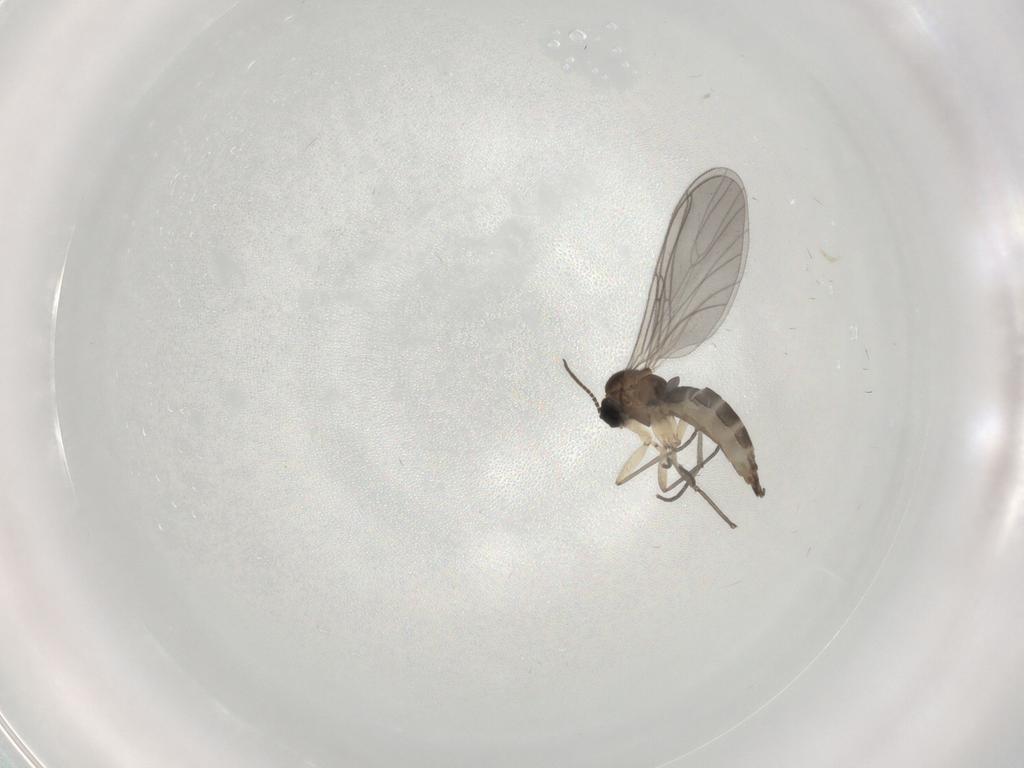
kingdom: Animalia
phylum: Arthropoda
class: Insecta
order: Diptera
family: Sciaridae
